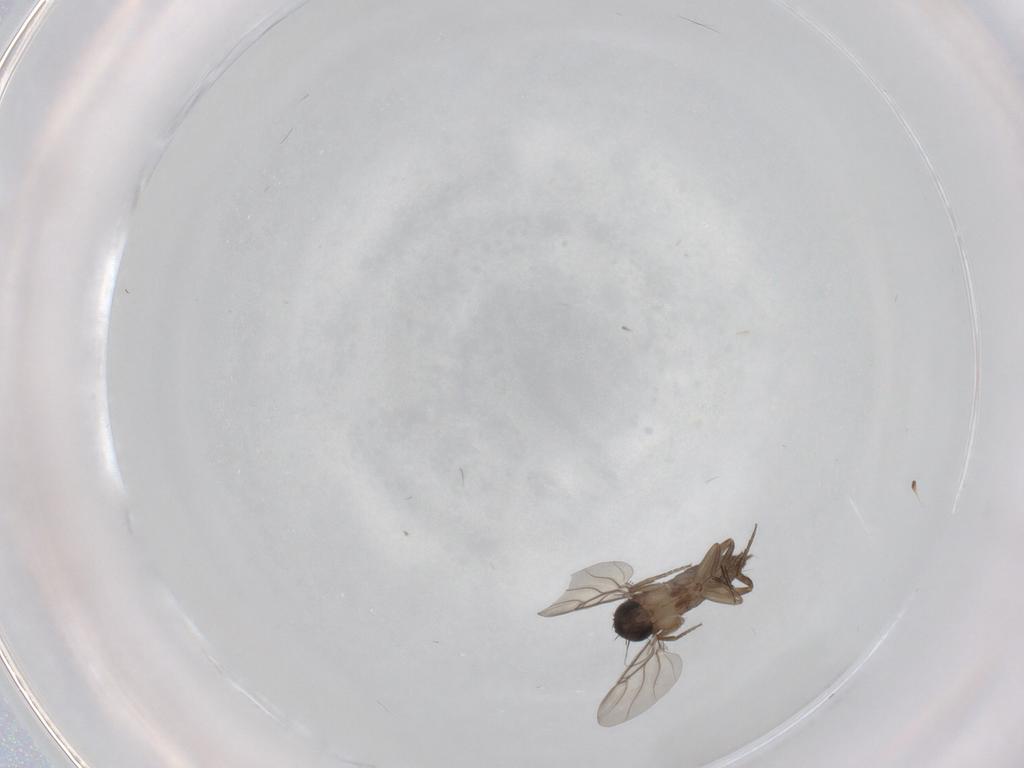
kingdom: Animalia
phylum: Arthropoda
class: Insecta
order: Diptera
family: Phoridae
